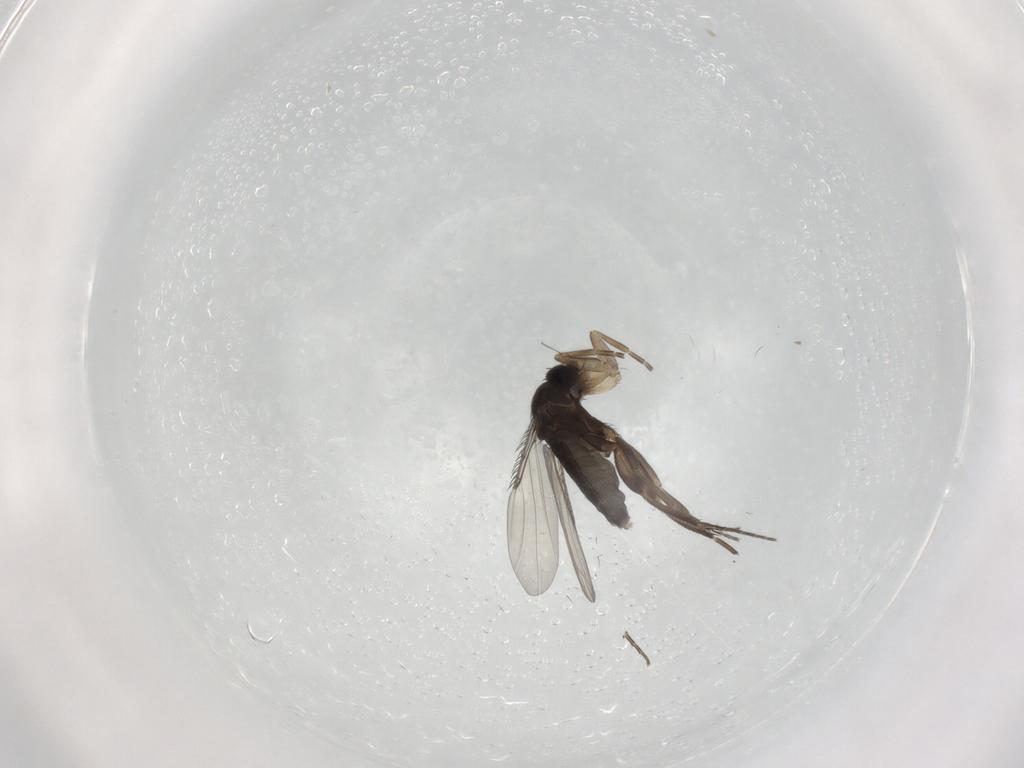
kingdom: Animalia
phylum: Arthropoda
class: Insecta
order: Diptera
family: Phoridae
